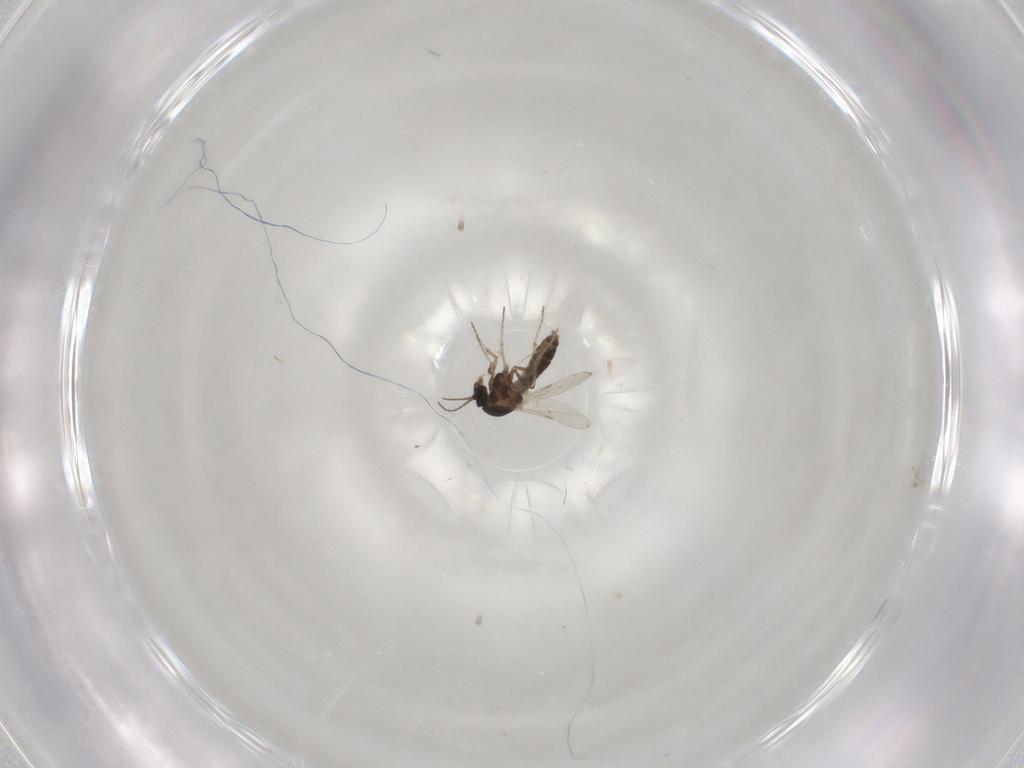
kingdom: Animalia
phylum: Arthropoda
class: Insecta
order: Diptera
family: Ceratopogonidae
